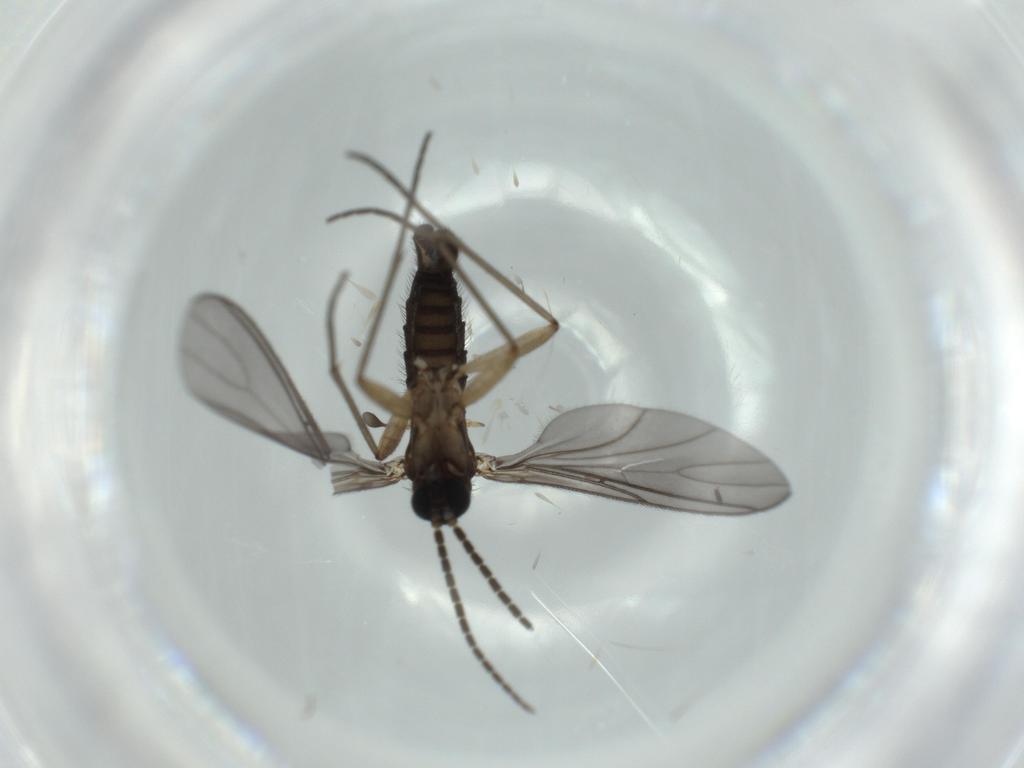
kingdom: Animalia
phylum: Arthropoda
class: Insecta
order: Diptera
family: Sciaridae
